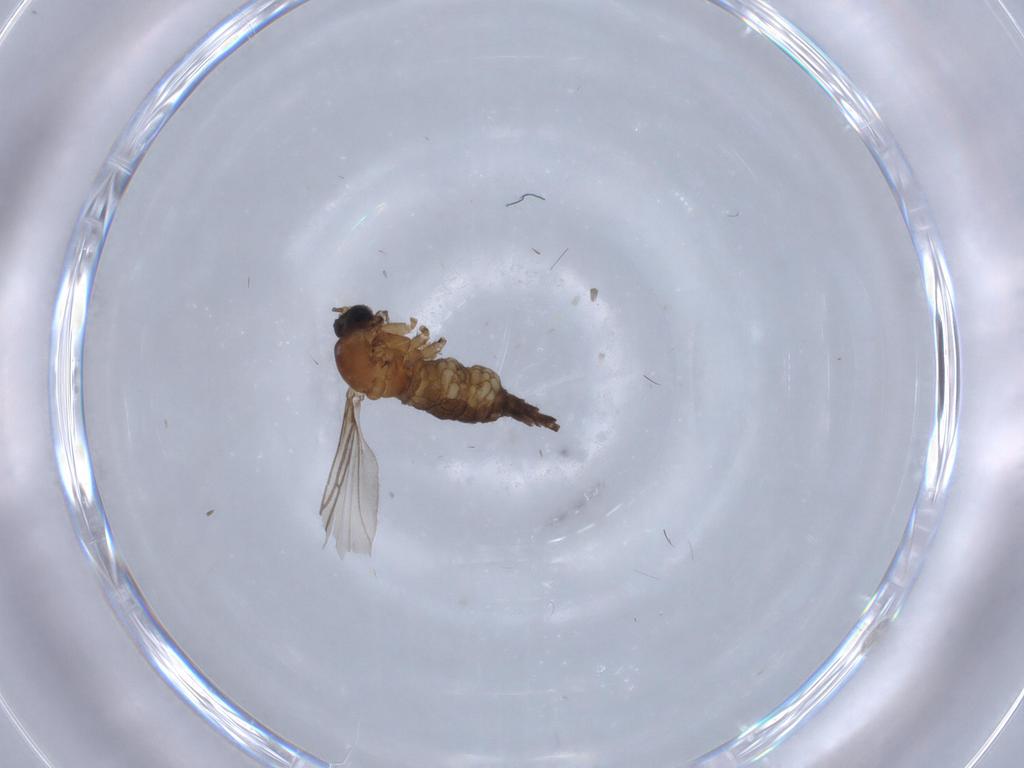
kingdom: Animalia
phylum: Arthropoda
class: Insecta
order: Diptera
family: Sciaridae
